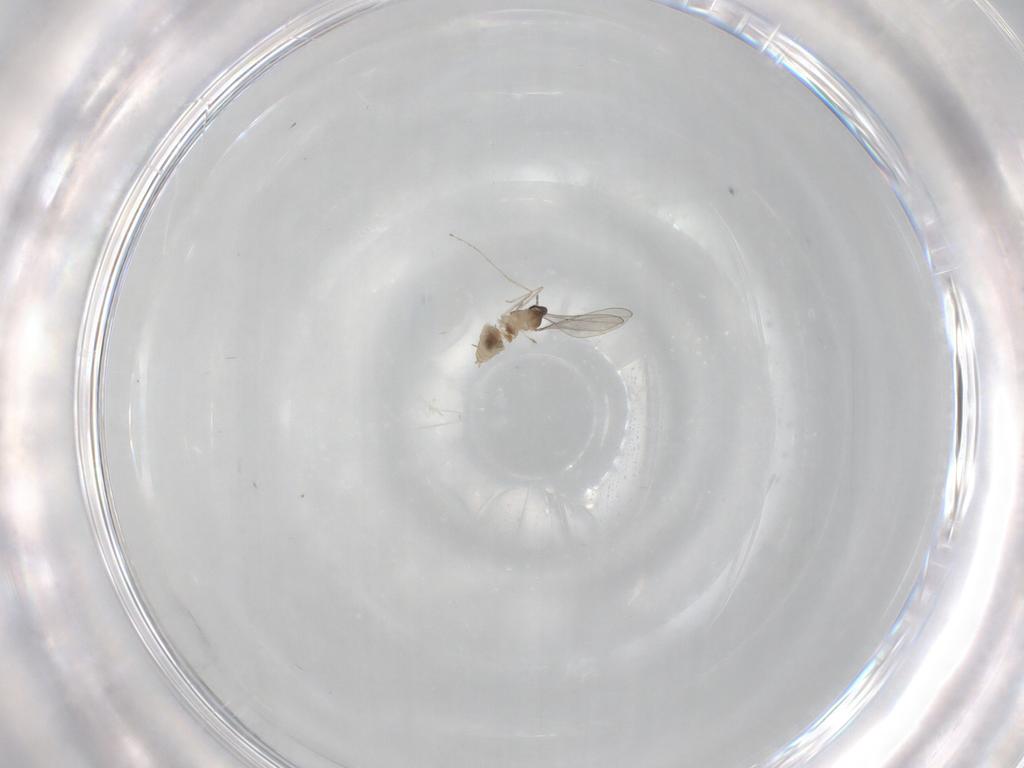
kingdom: Animalia
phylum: Arthropoda
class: Insecta
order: Diptera
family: Cecidomyiidae
